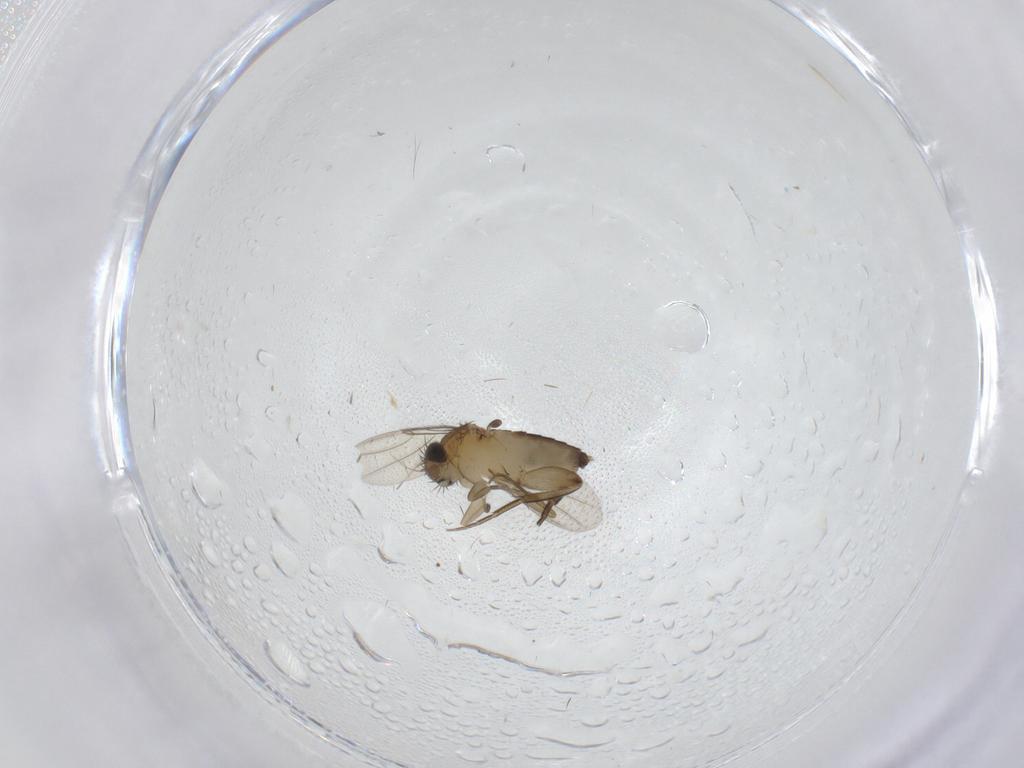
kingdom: Animalia
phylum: Arthropoda
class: Insecta
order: Diptera
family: Phoridae
